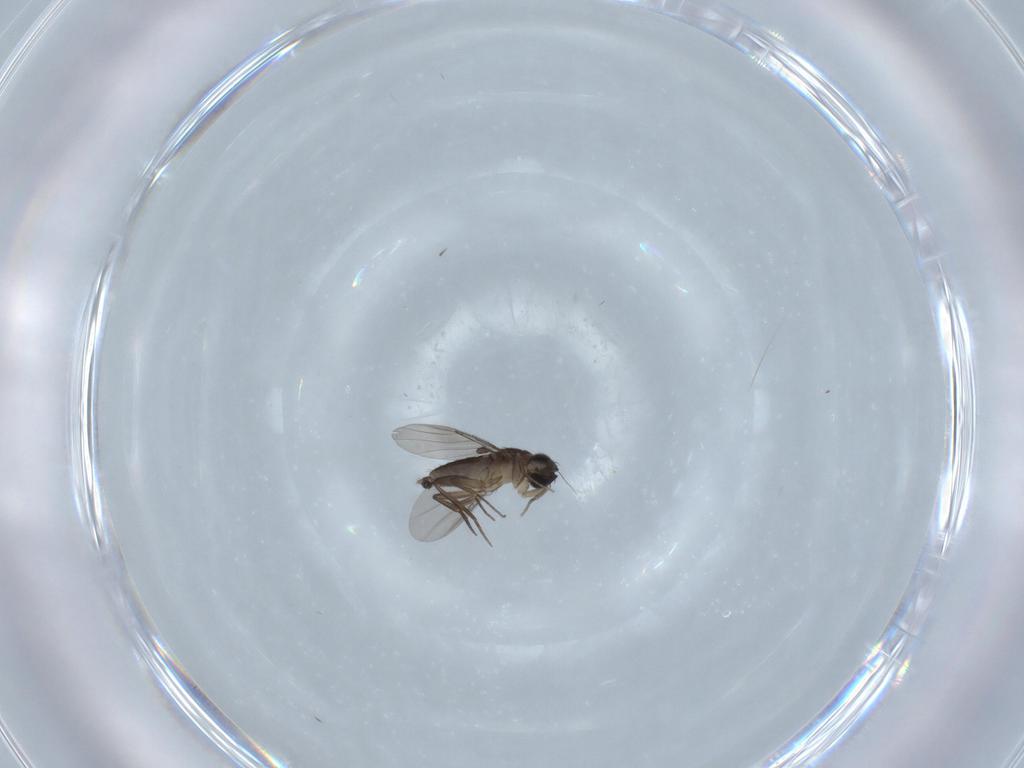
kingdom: Animalia
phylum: Arthropoda
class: Insecta
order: Diptera
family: Phoridae
